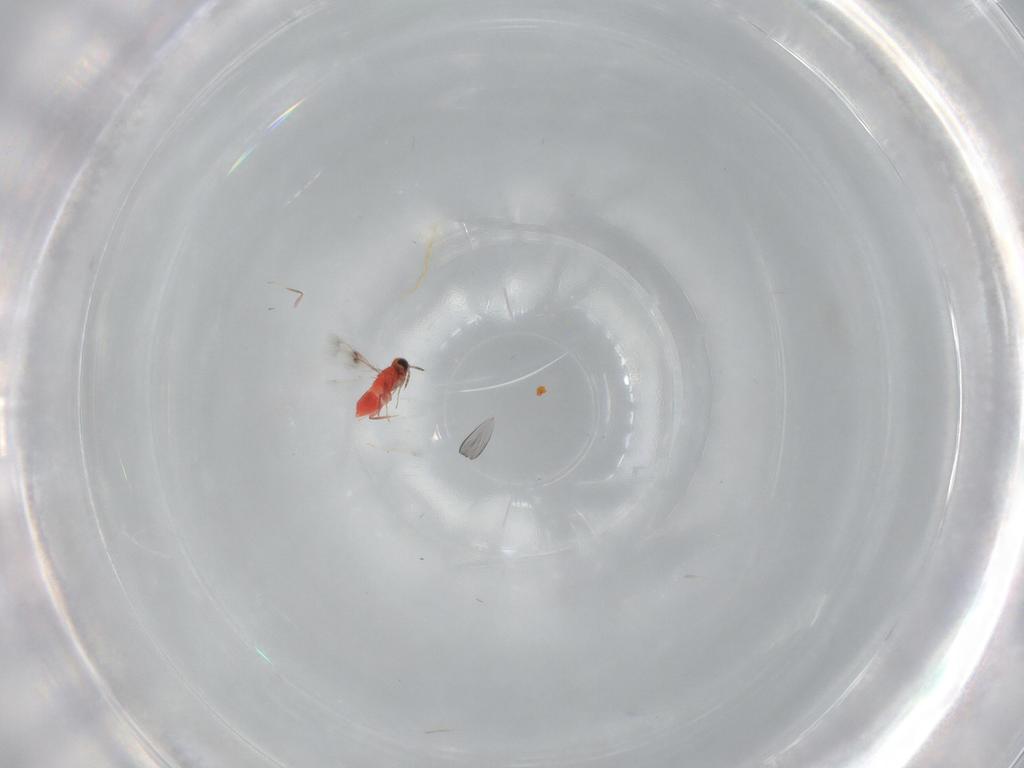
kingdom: Animalia
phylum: Arthropoda
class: Insecta
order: Hymenoptera
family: Trichogrammatidae
